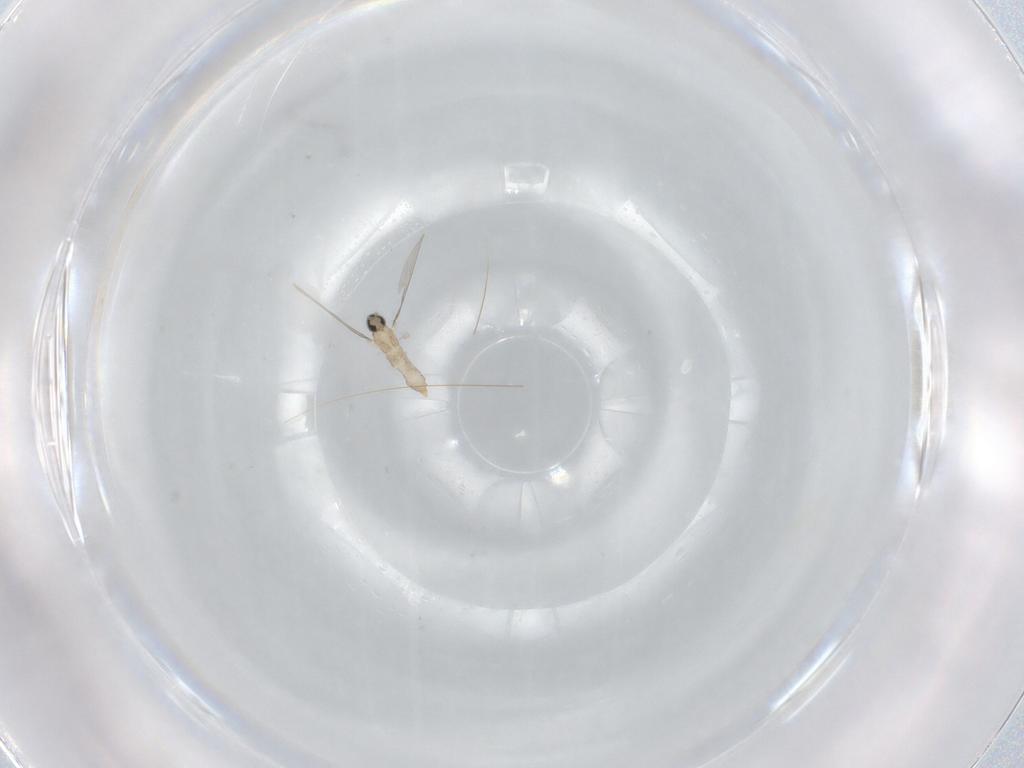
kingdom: Animalia
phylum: Arthropoda
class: Insecta
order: Diptera
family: Cecidomyiidae
